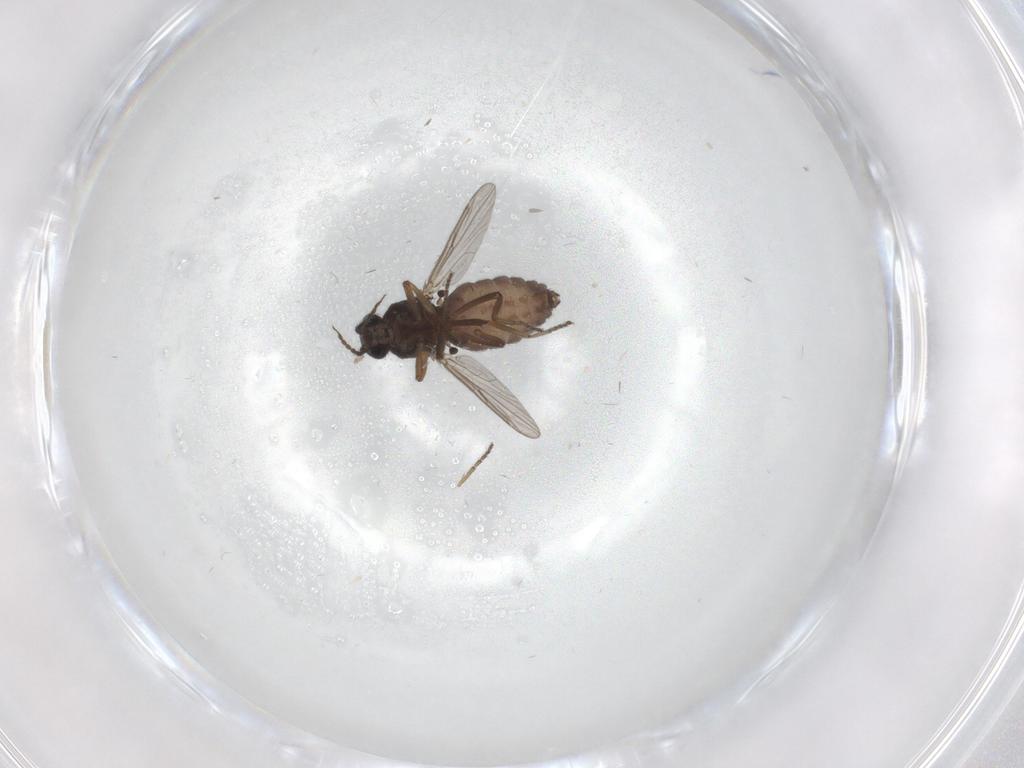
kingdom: Animalia
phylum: Arthropoda
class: Insecta
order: Diptera
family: Ceratopogonidae
